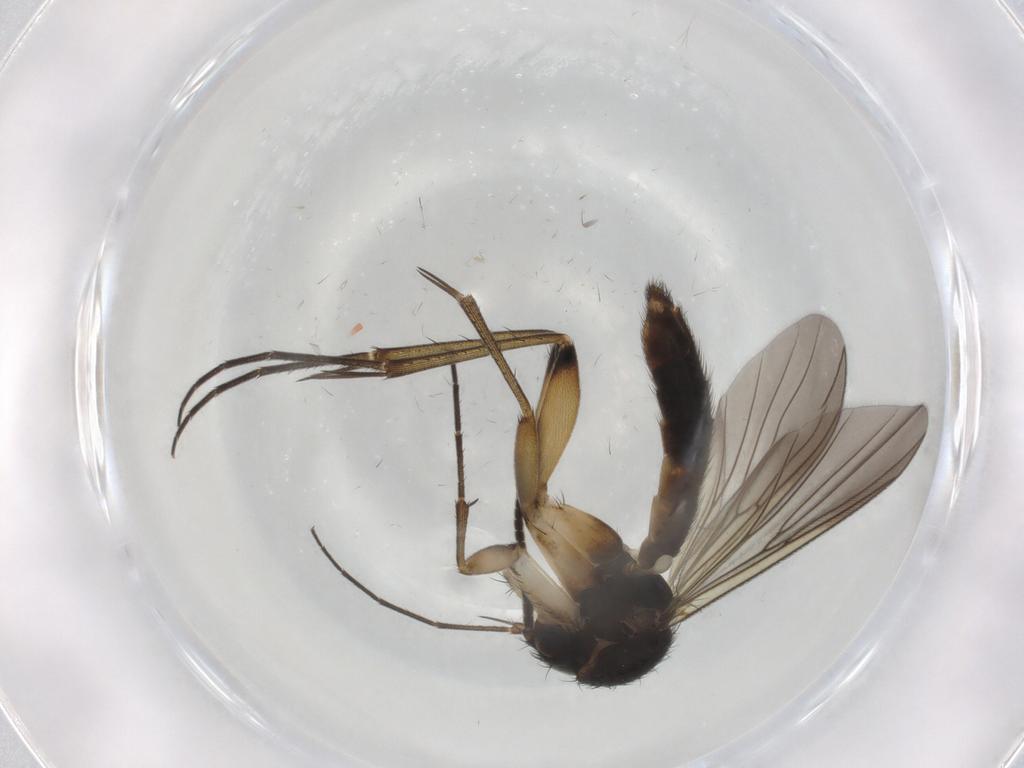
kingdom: Animalia
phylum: Arthropoda
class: Insecta
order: Diptera
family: Mycetophilidae
